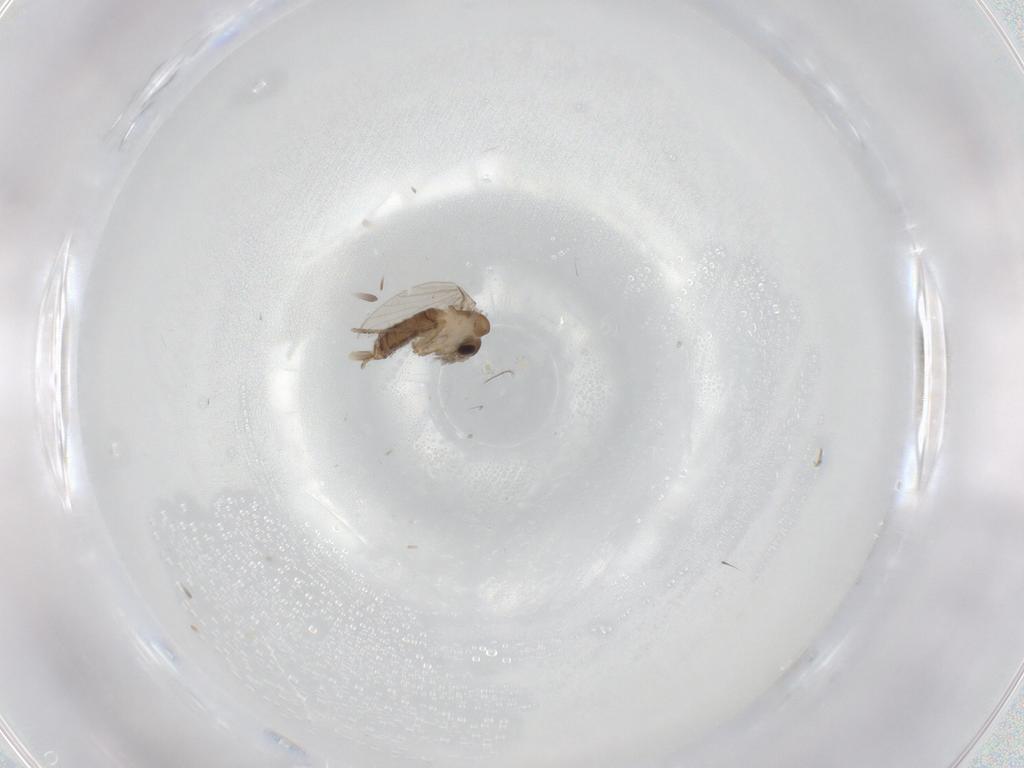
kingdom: Animalia
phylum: Arthropoda
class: Insecta
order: Diptera
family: Psychodidae
